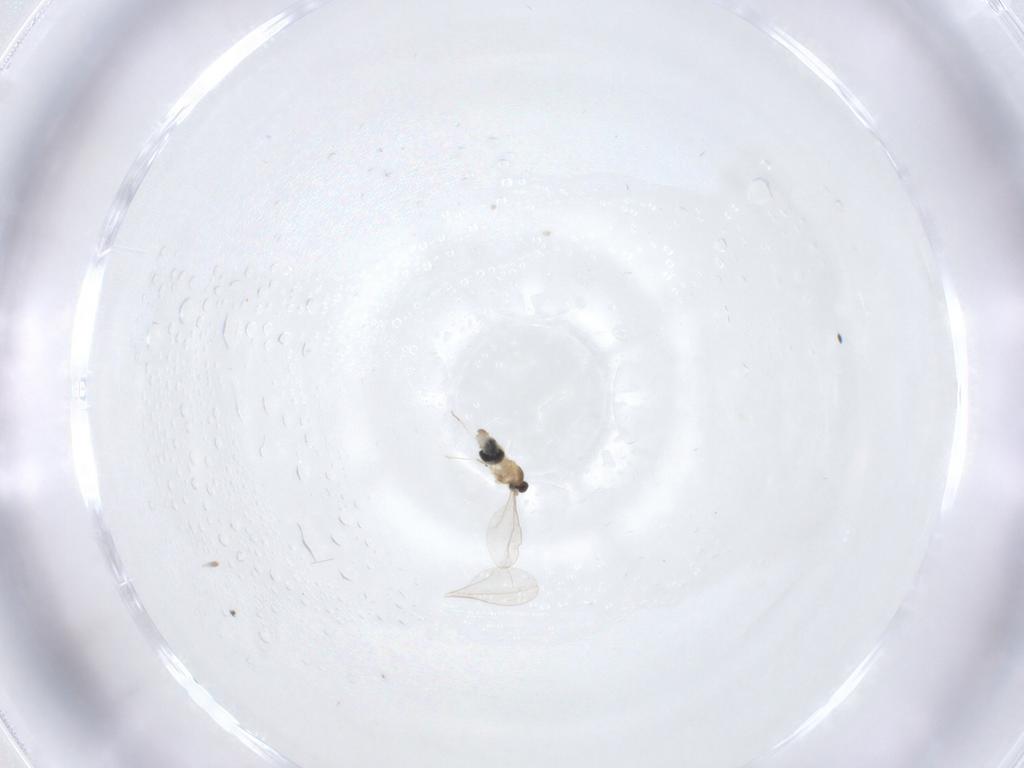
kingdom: Animalia
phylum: Arthropoda
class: Insecta
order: Diptera
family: Cecidomyiidae
